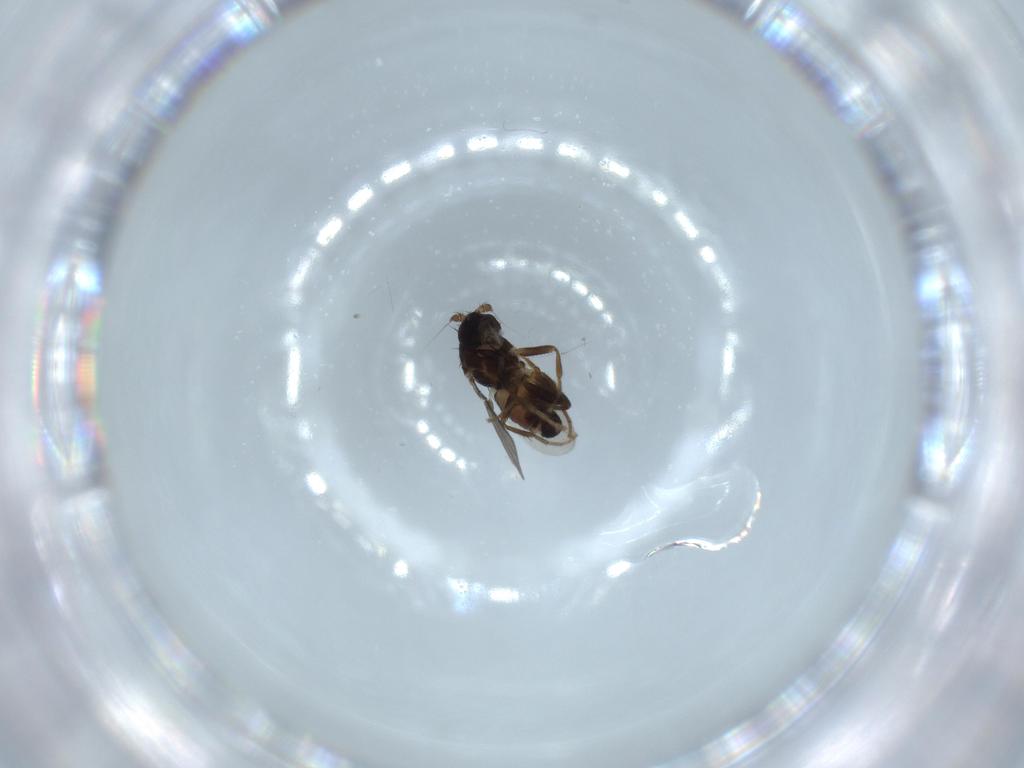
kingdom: Animalia
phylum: Arthropoda
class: Insecta
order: Diptera
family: Sphaeroceridae
